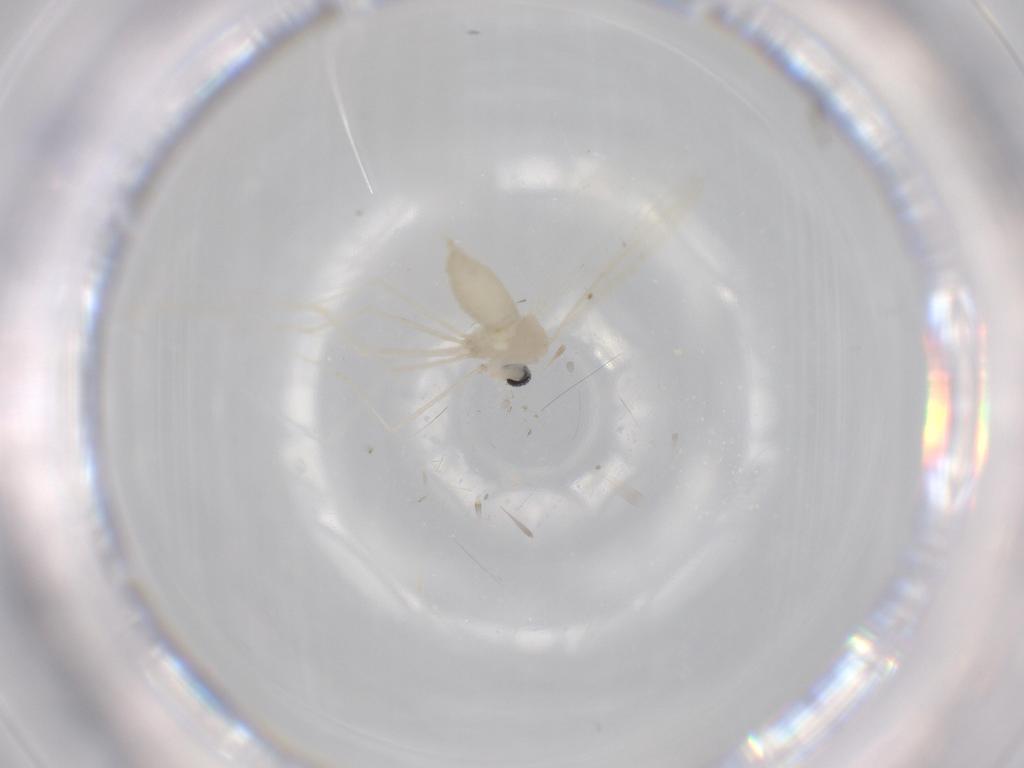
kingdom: Animalia
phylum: Arthropoda
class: Insecta
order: Diptera
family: Cecidomyiidae
